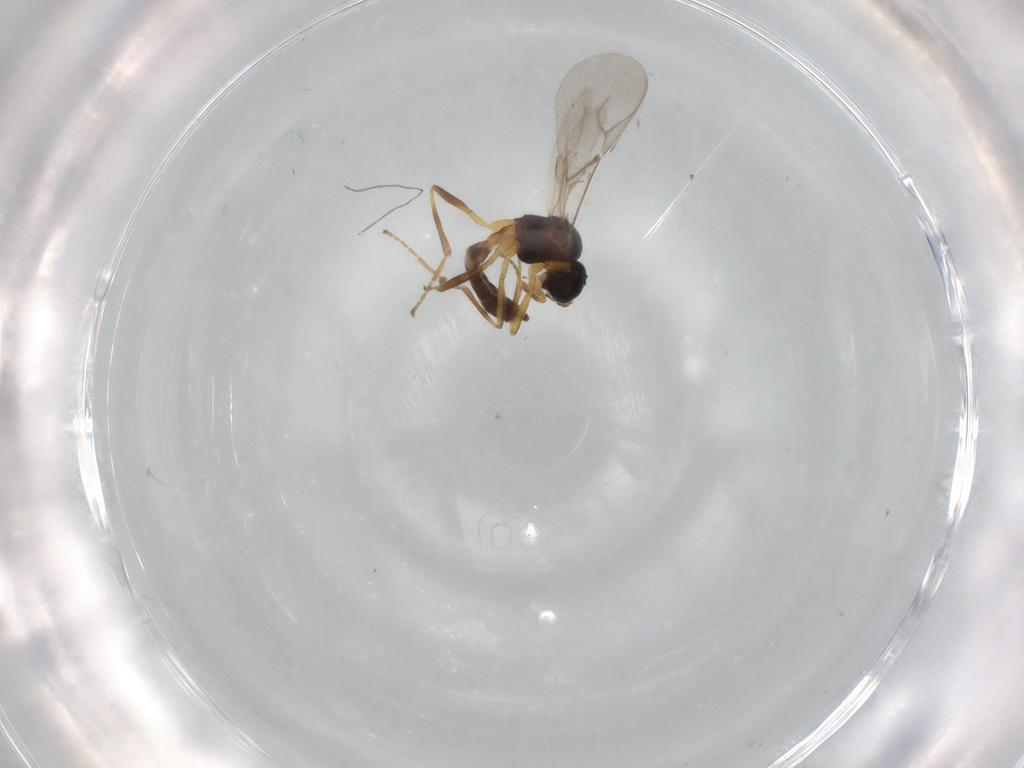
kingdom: Animalia
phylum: Arthropoda
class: Insecta
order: Hymenoptera
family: Braconidae
